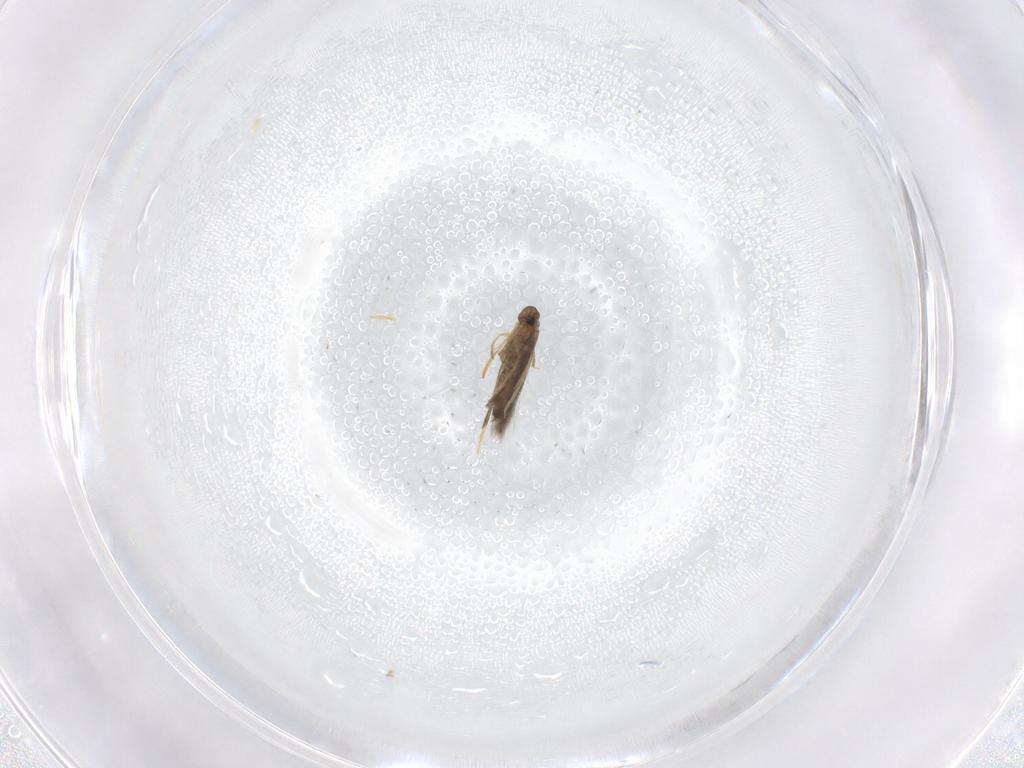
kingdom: Animalia
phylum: Arthropoda
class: Insecta
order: Lepidoptera
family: Heliozelidae
